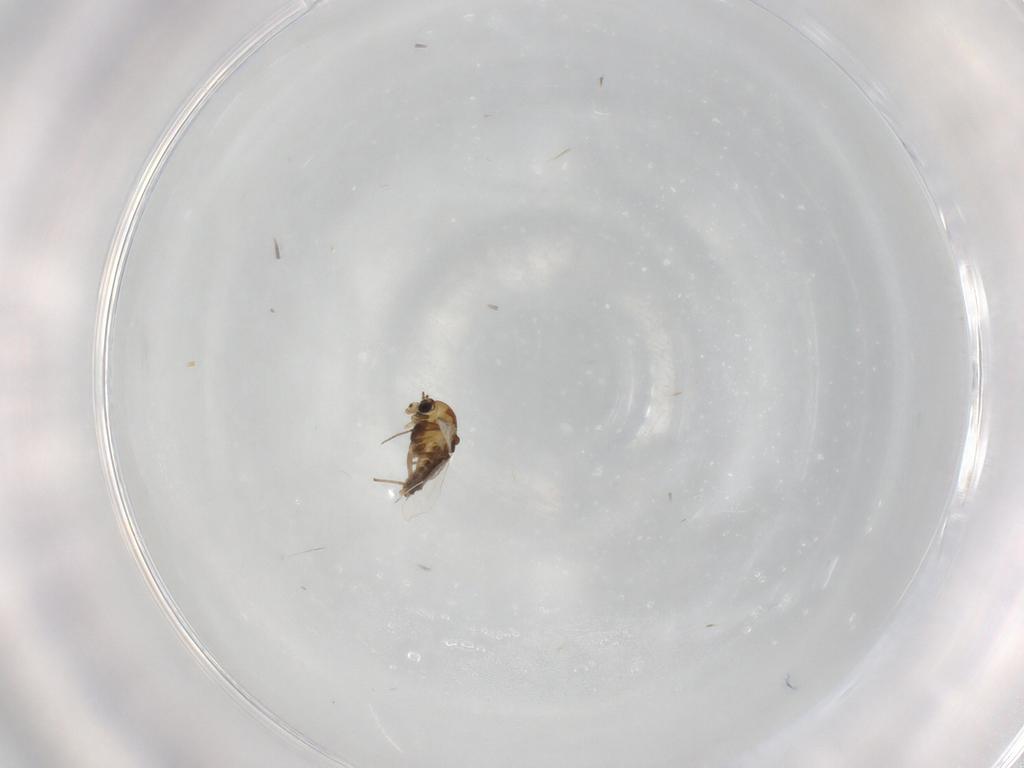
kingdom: Animalia
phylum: Arthropoda
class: Insecta
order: Diptera
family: Chironomidae
